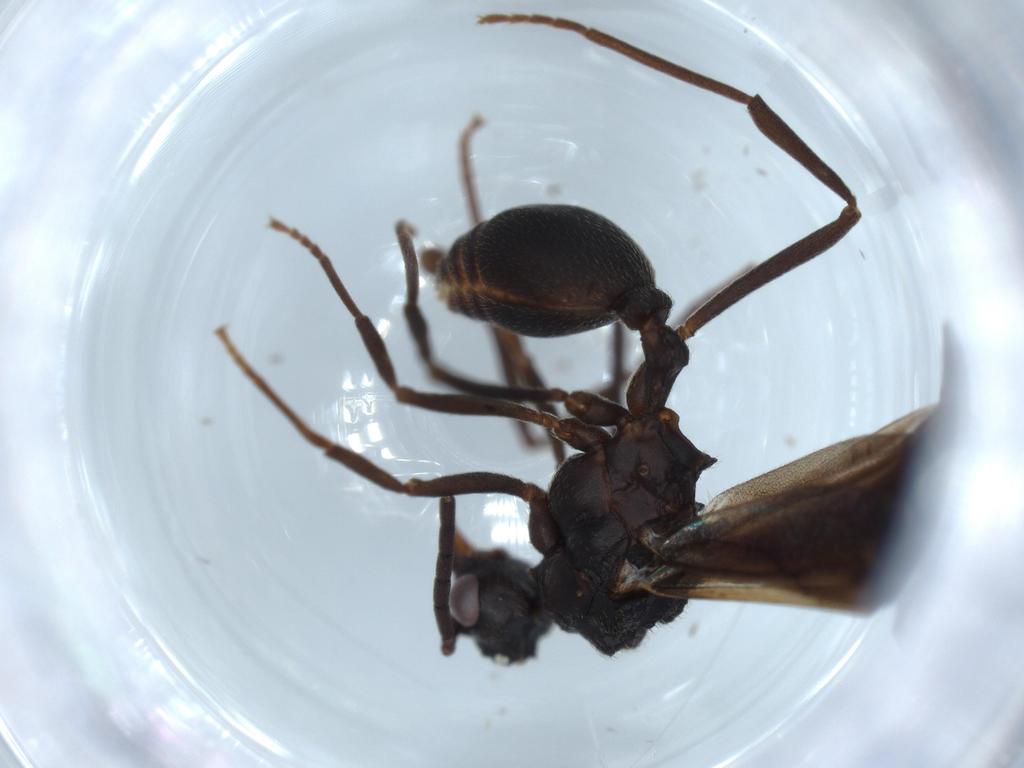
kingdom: Animalia
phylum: Arthropoda
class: Insecta
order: Hymenoptera
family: Formicidae
